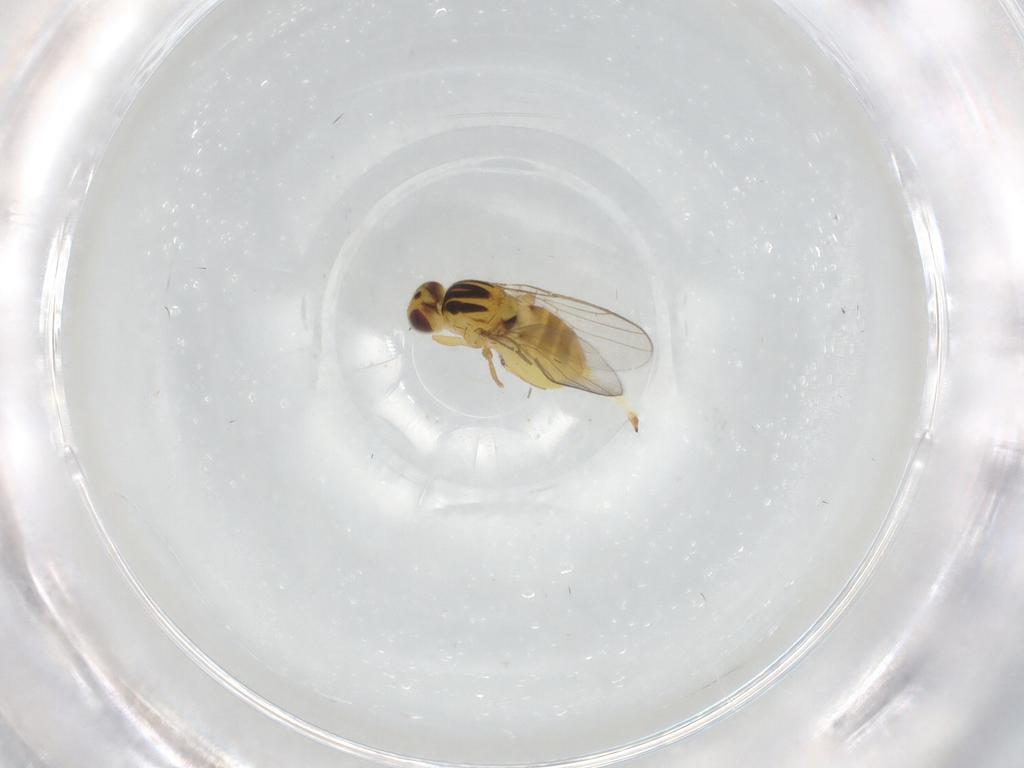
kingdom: Animalia
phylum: Arthropoda
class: Insecta
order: Diptera
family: Chloropidae
